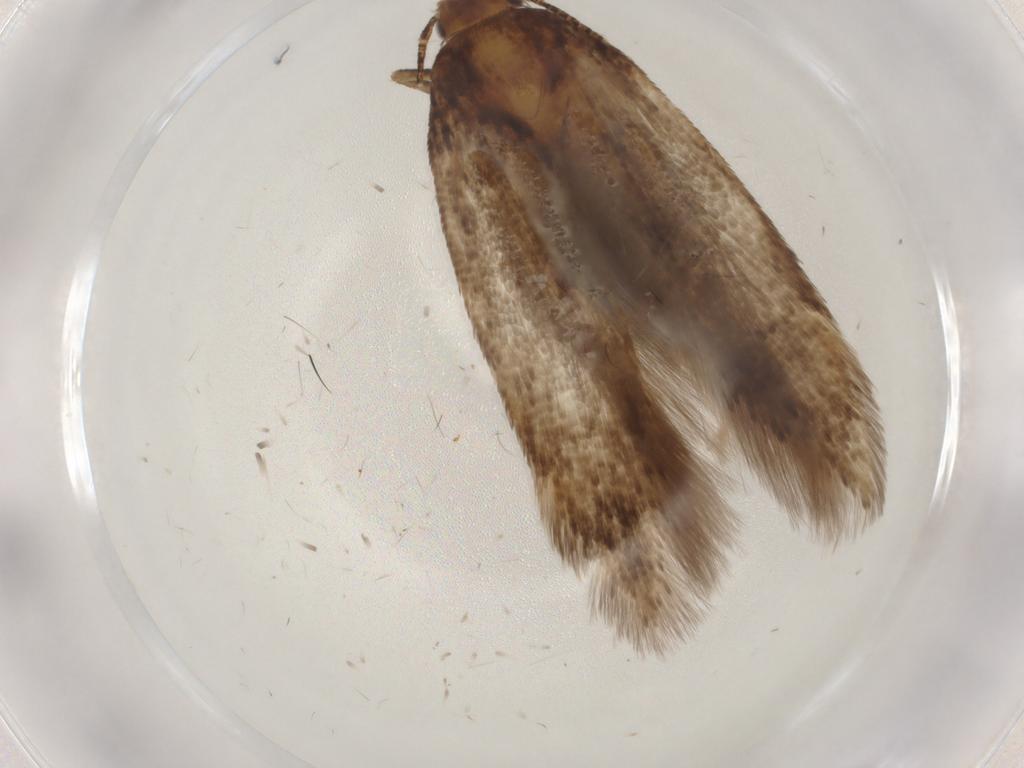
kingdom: Animalia
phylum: Arthropoda
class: Insecta
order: Lepidoptera
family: Gelechiidae
